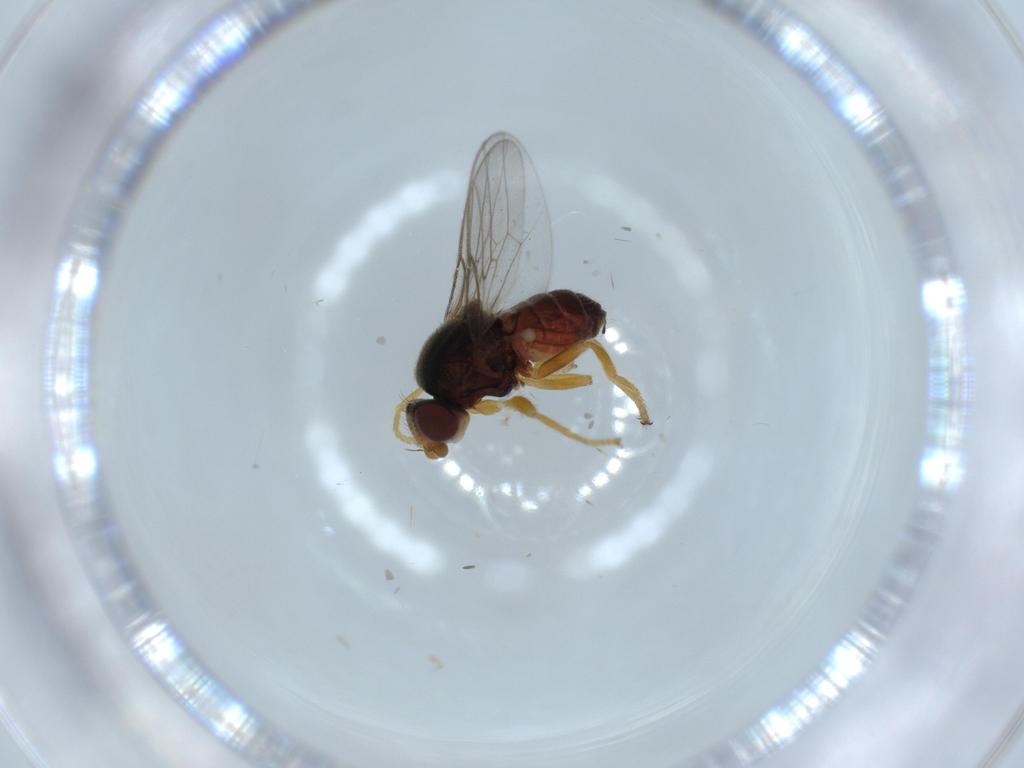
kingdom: Animalia
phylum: Arthropoda
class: Insecta
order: Diptera
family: Chloropidae
